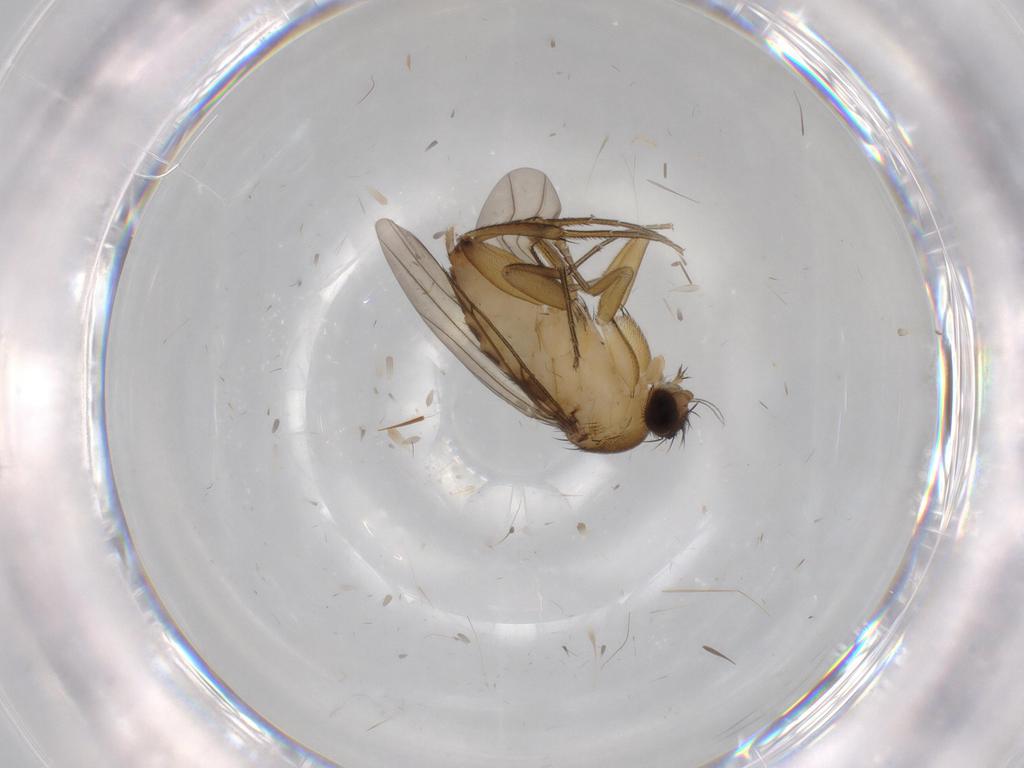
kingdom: Animalia
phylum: Arthropoda
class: Insecta
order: Diptera
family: Phoridae
